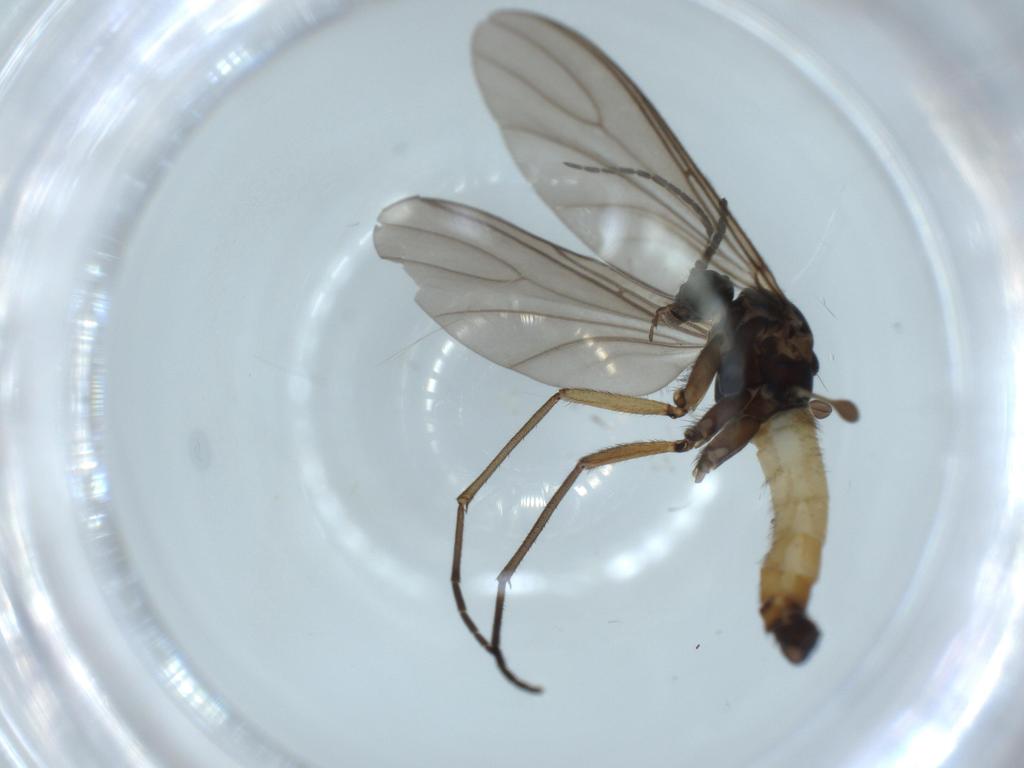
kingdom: Animalia
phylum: Arthropoda
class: Insecta
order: Diptera
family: Sciaridae
